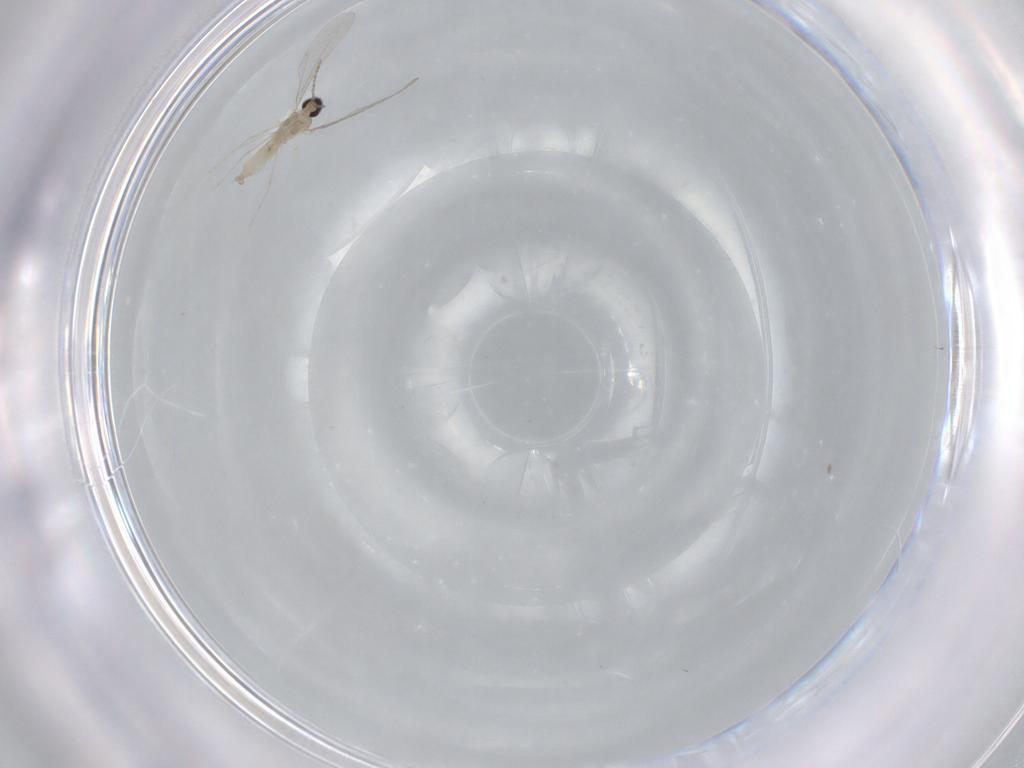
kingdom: Animalia
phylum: Arthropoda
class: Insecta
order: Diptera
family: Cecidomyiidae
